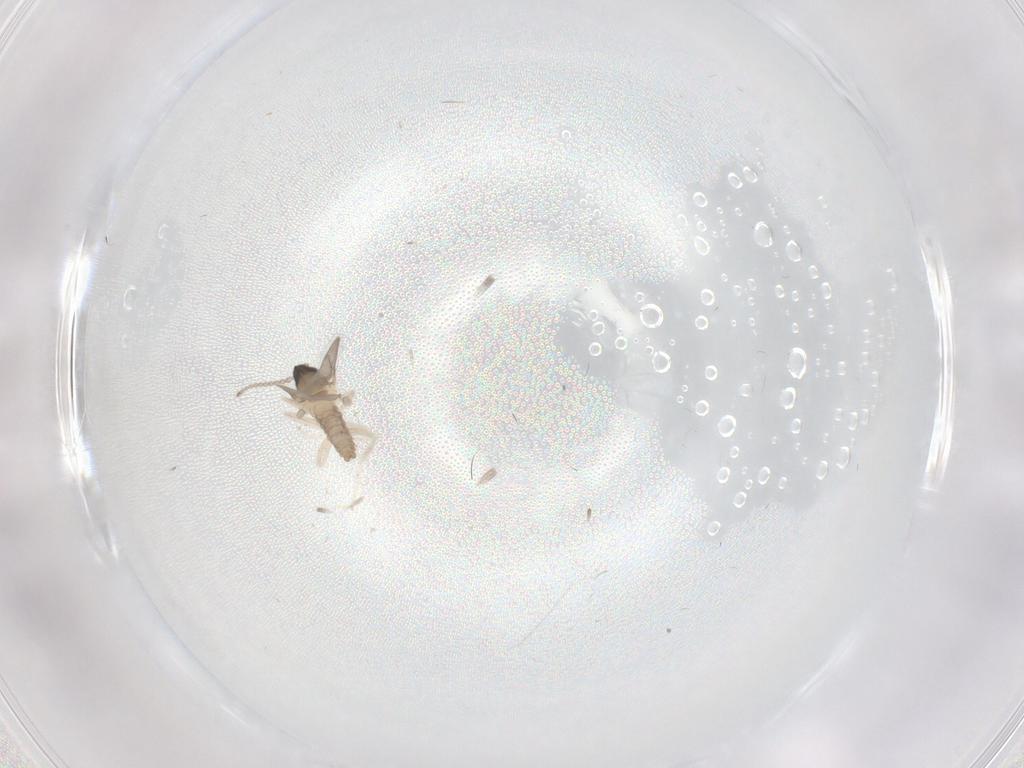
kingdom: Animalia
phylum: Arthropoda
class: Insecta
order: Diptera
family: Cecidomyiidae
